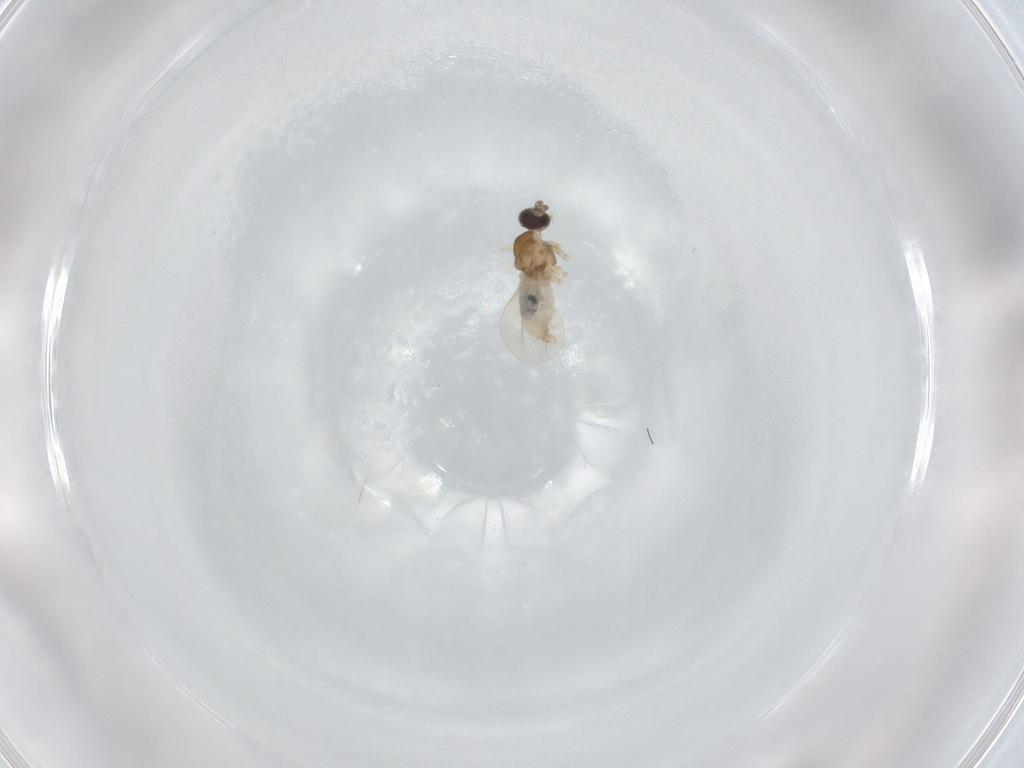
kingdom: Animalia
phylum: Arthropoda
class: Insecta
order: Diptera
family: Cecidomyiidae
